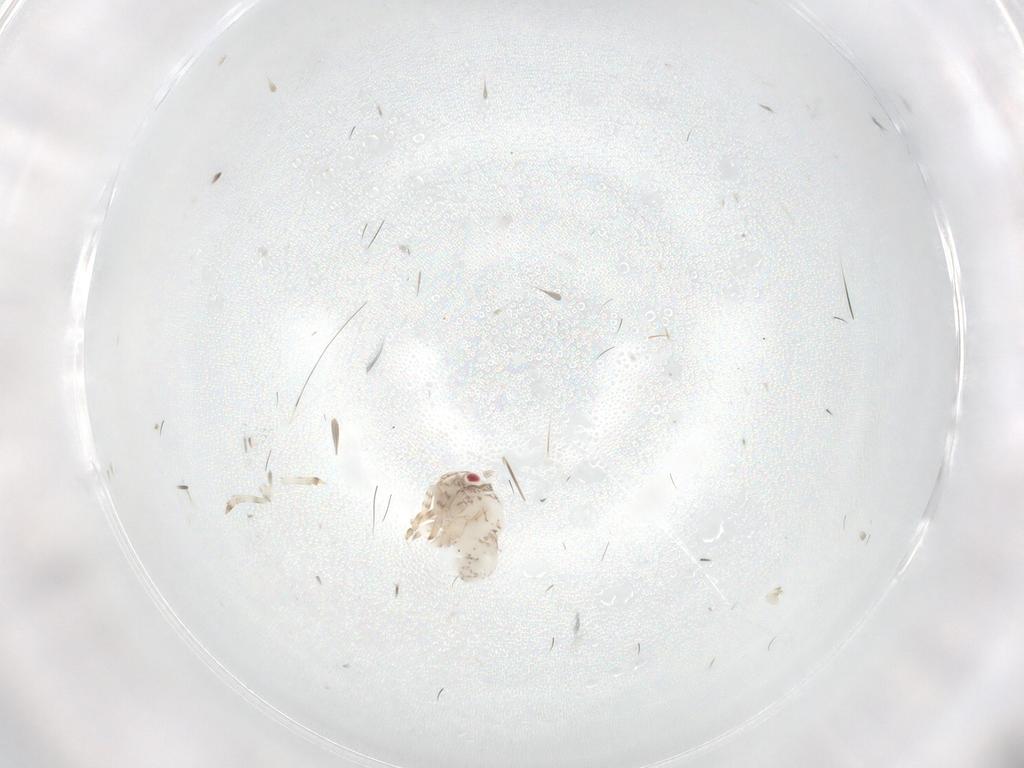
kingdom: Animalia
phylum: Arthropoda
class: Insecta
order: Hemiptera
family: Acanaloniidae
